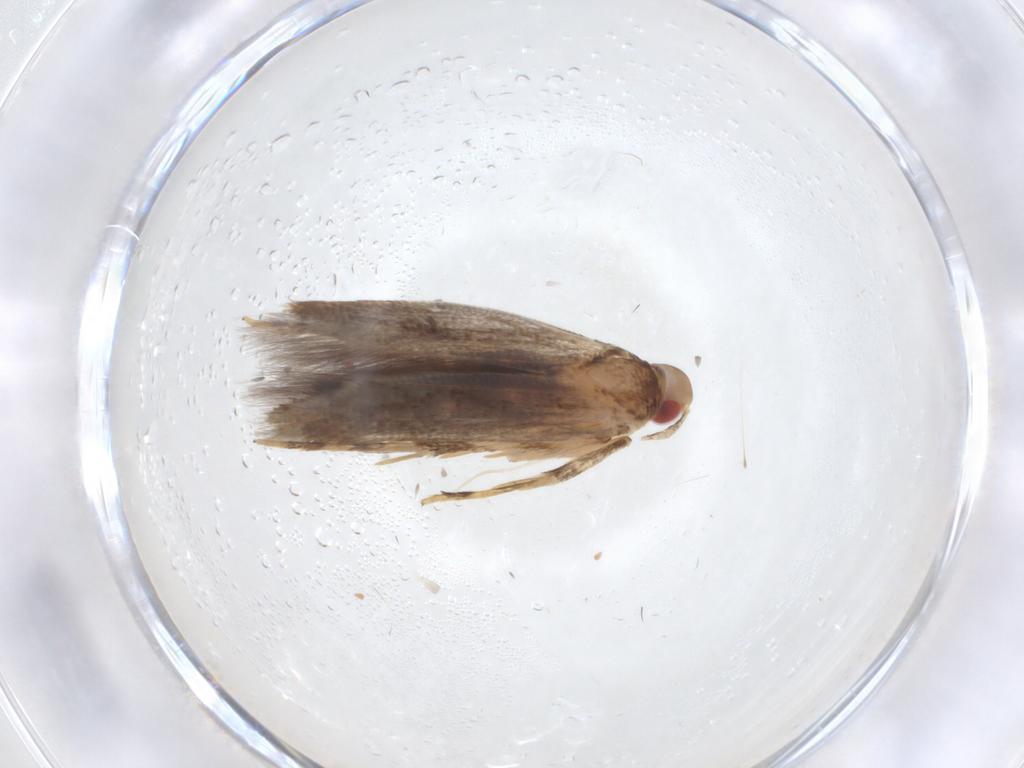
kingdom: Animalia
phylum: Arthropoda
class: Insecta
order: Lepidoptera
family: Cosmopterigidae
